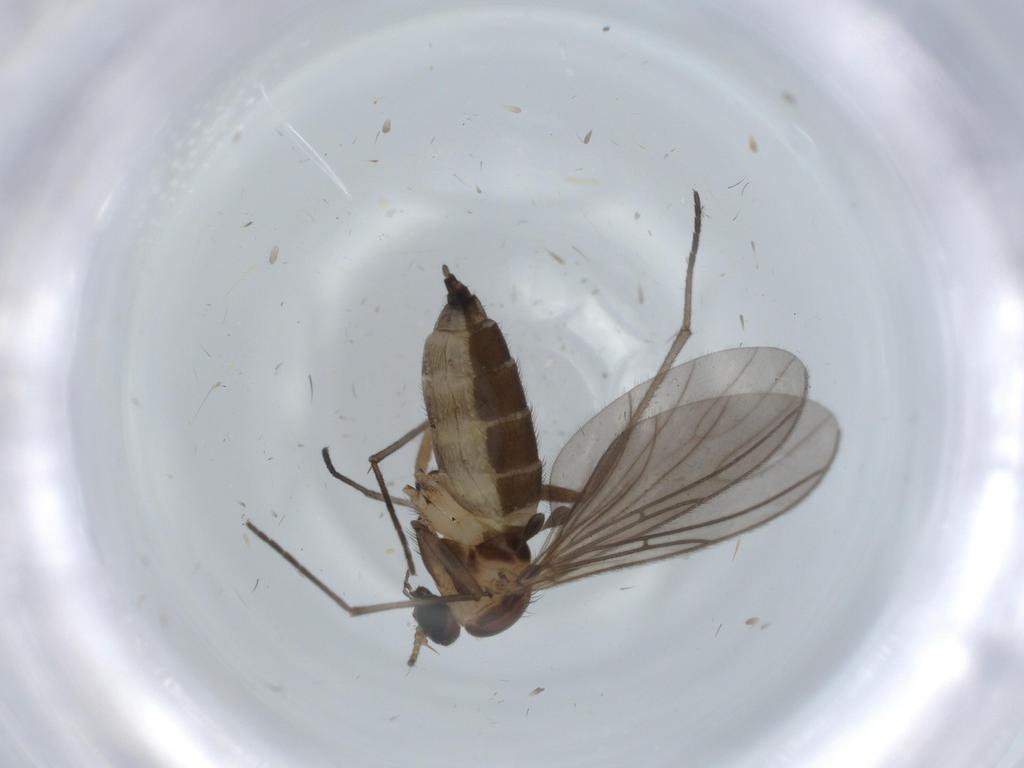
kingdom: Animalia
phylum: Arthropoda
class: Insecta
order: Diptera
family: Sciaridae
